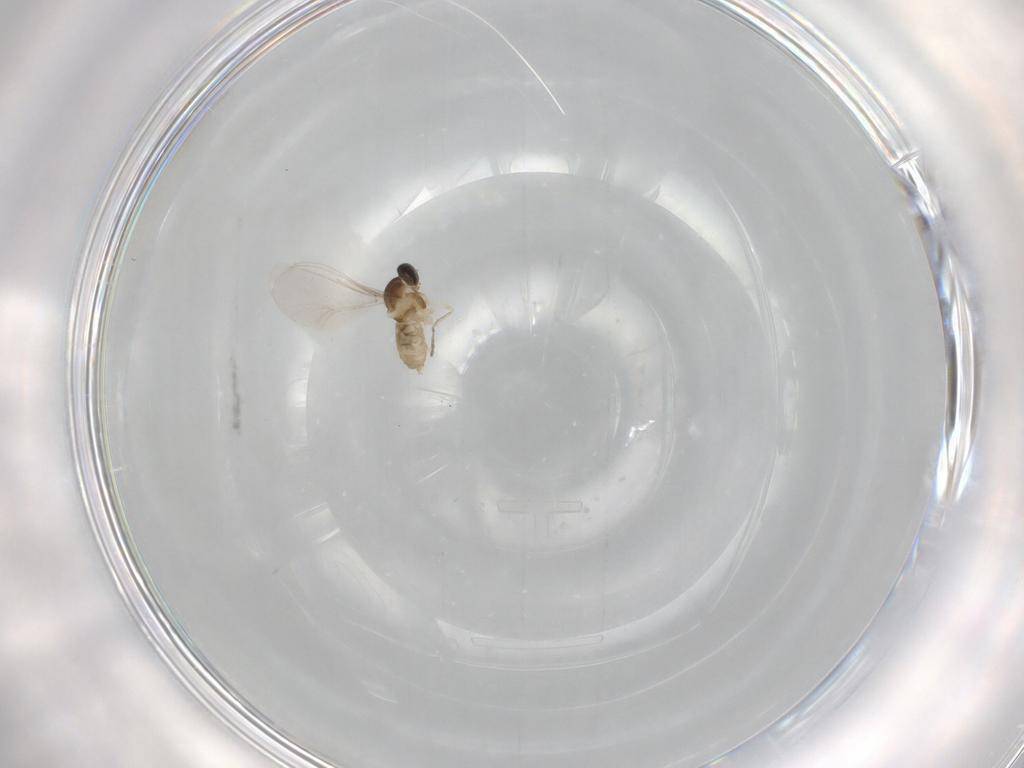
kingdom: Animalia
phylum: Arthropoda
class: Insecta
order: Diptera
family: Cecidomyiidae
